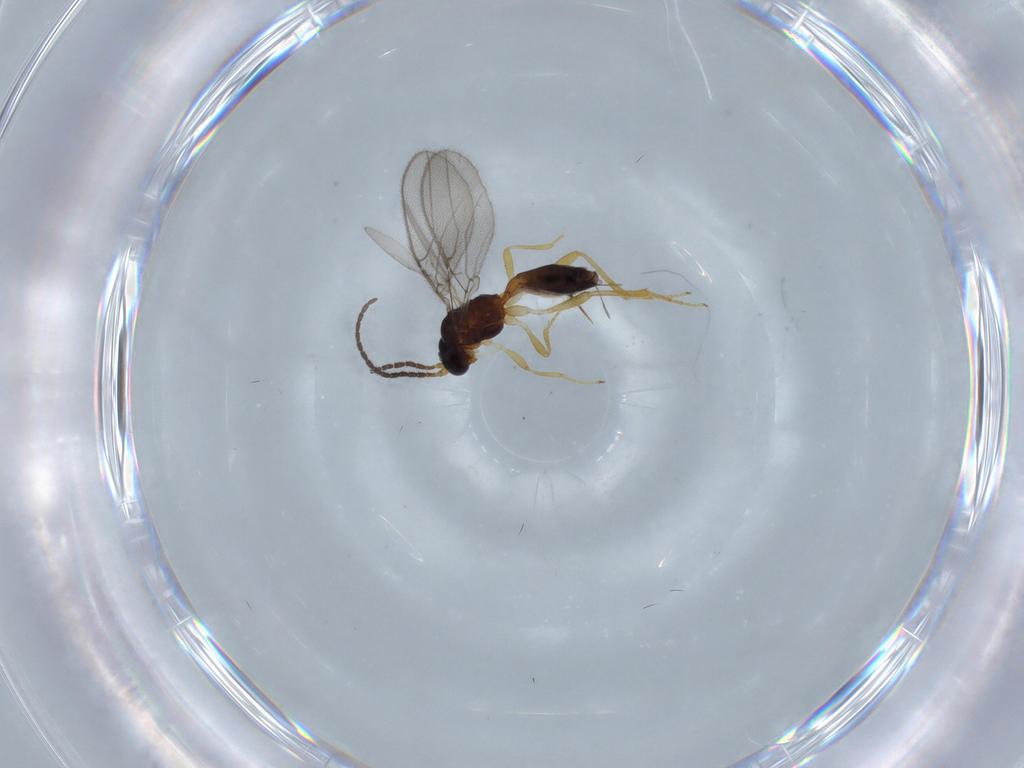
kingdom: Animalia
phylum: Arthropoda
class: Insecta
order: Hymenoptera
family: Braconidae
